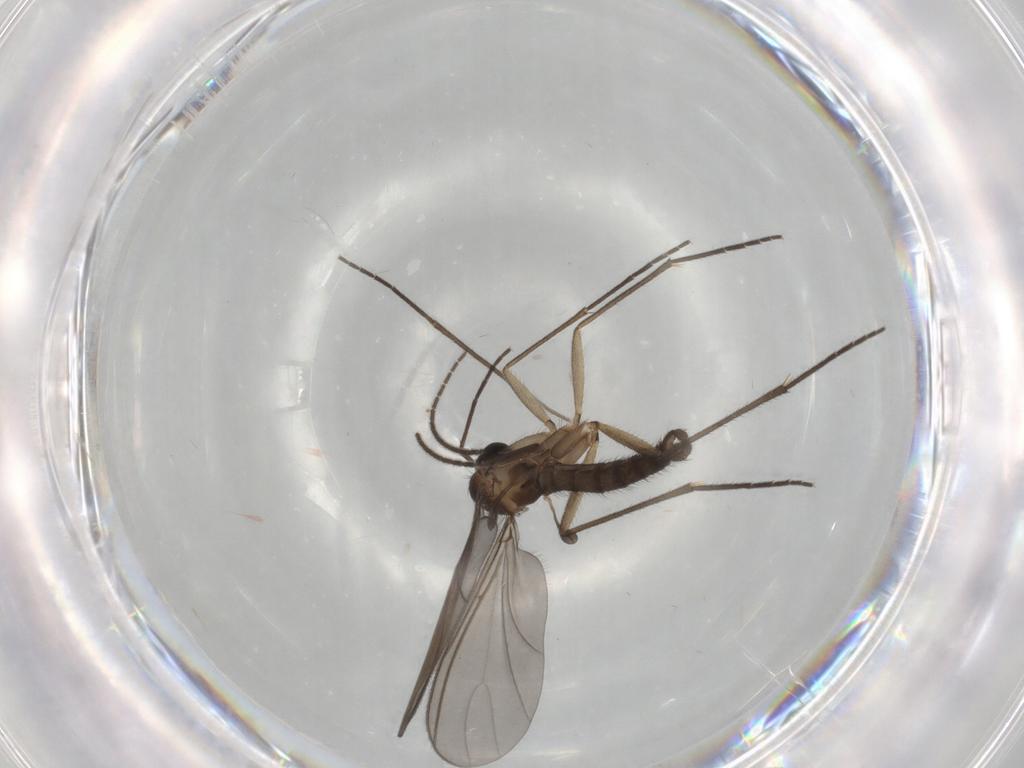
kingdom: Animalia
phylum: Arthropoda
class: Insecta
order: Diptera
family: Sciaridae
